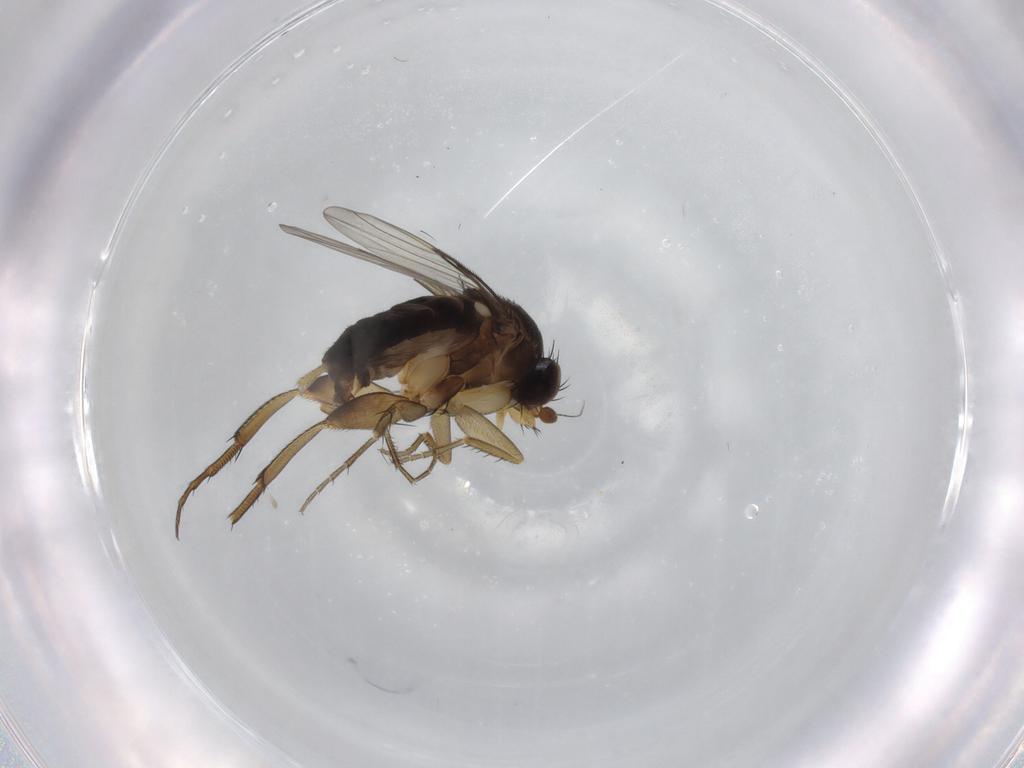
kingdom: Animalia
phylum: Arthropoda
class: Insecta
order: Diptera
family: Phoridae
